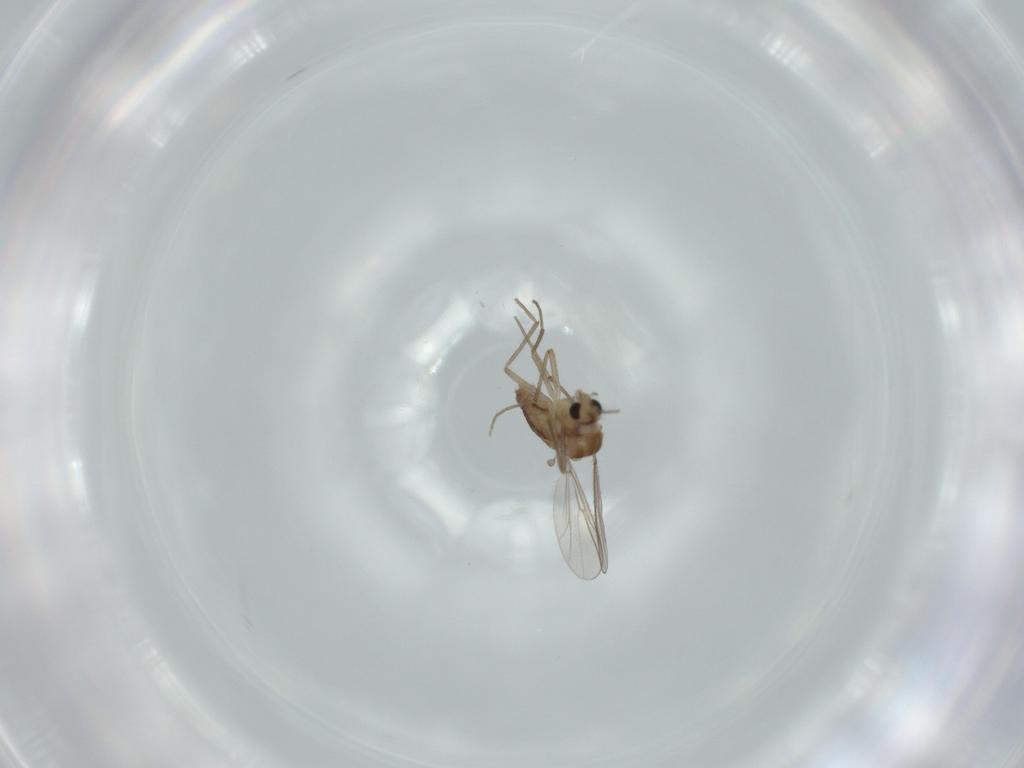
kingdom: Animalia
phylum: Arthropoda
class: Insecta
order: Diptera
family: Chironomidae
